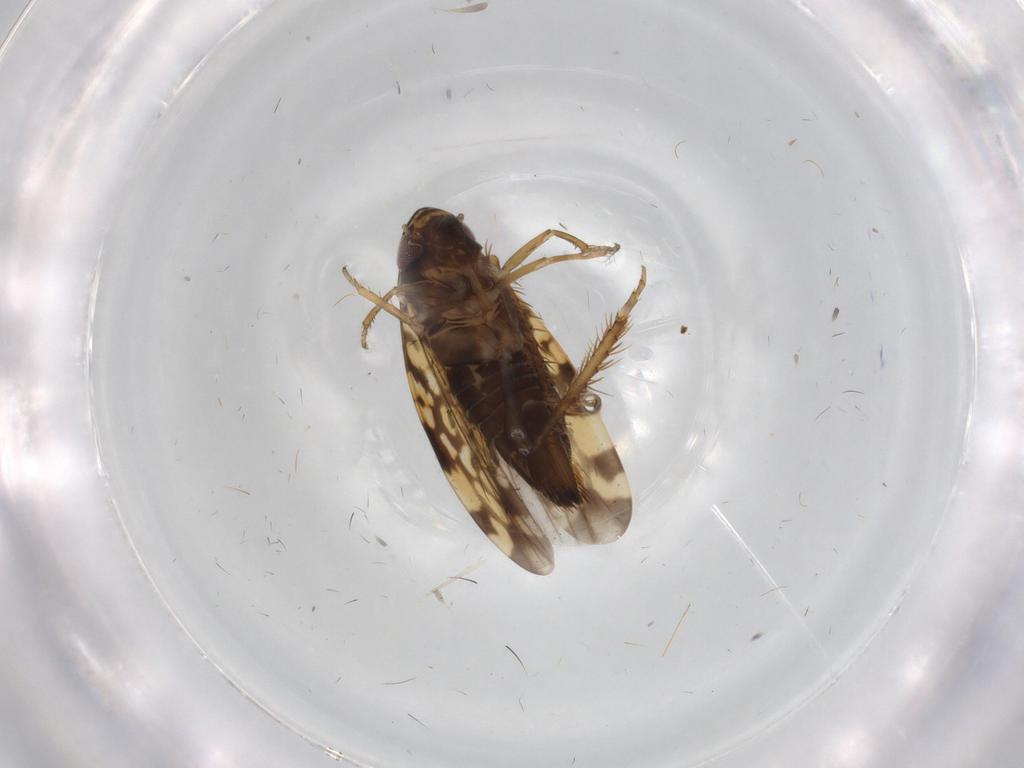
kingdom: Animalia
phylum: Arthropoda
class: Insecta
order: Hemiptera
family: Cicadellidae
